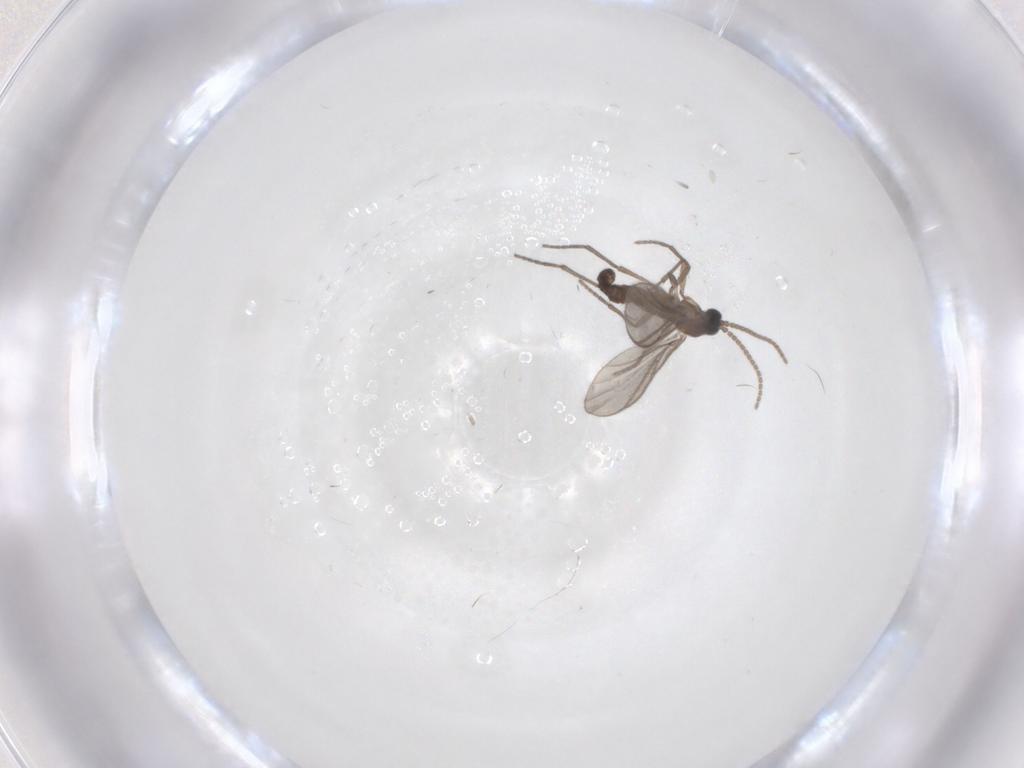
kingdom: Animalia
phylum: Arthropoda
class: Insecta
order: Diptera
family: Sciaridae
